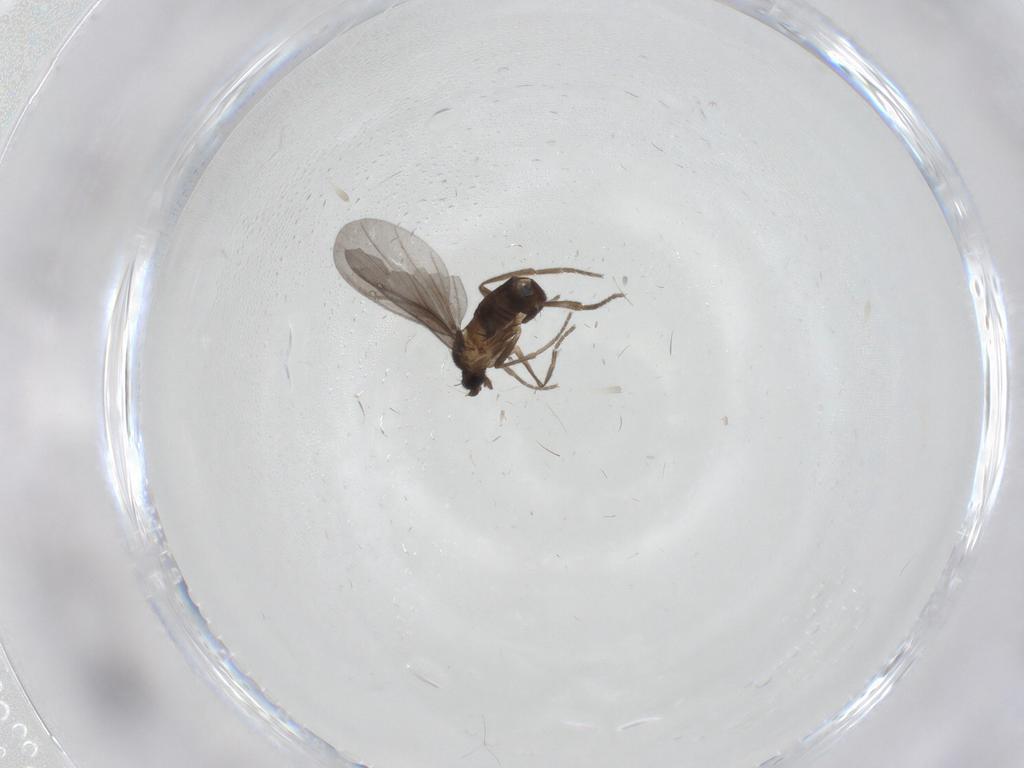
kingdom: Animalia
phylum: Arthropoda
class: Insecta
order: Diptera
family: Phoridae
